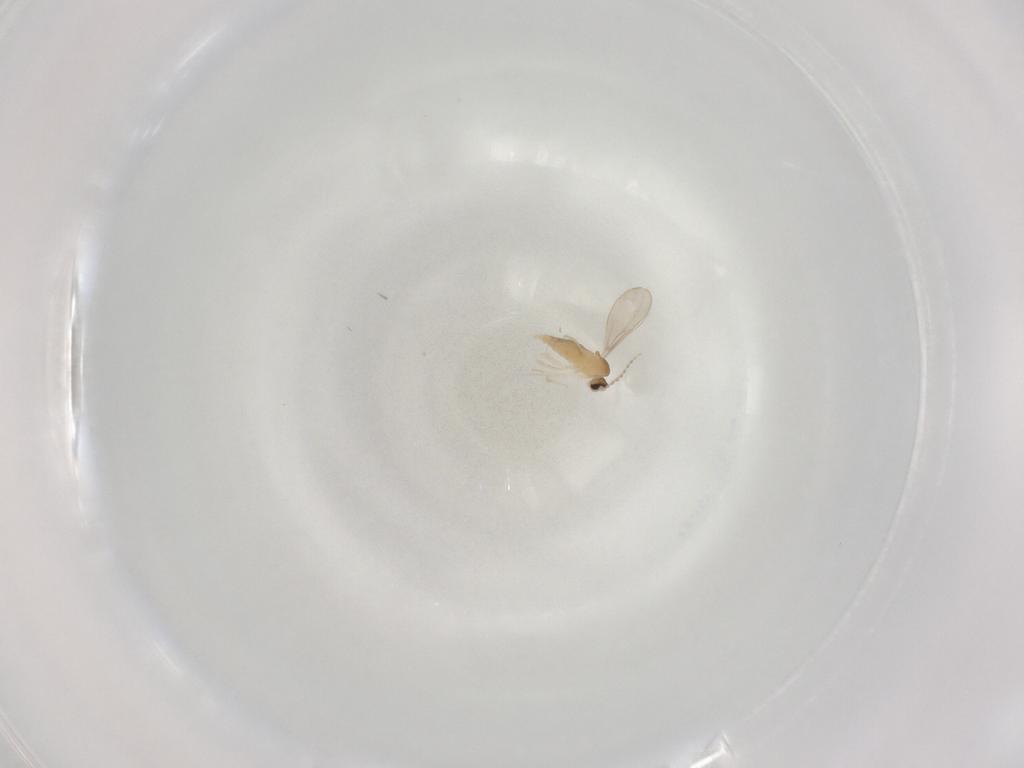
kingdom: Animalia
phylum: Arthropoda
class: Insecta
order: Diptera
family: Cecidomyiidae
